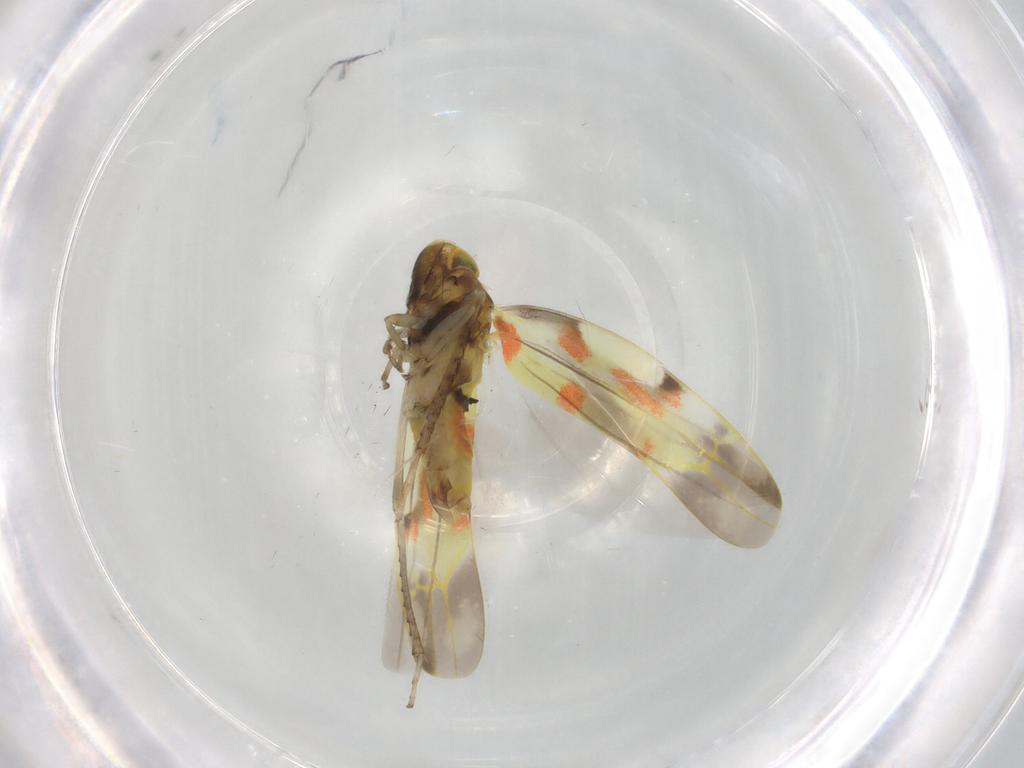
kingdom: Animalia
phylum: Arthropoda
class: Insecta
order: Hemiptera
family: Cicadellidae
